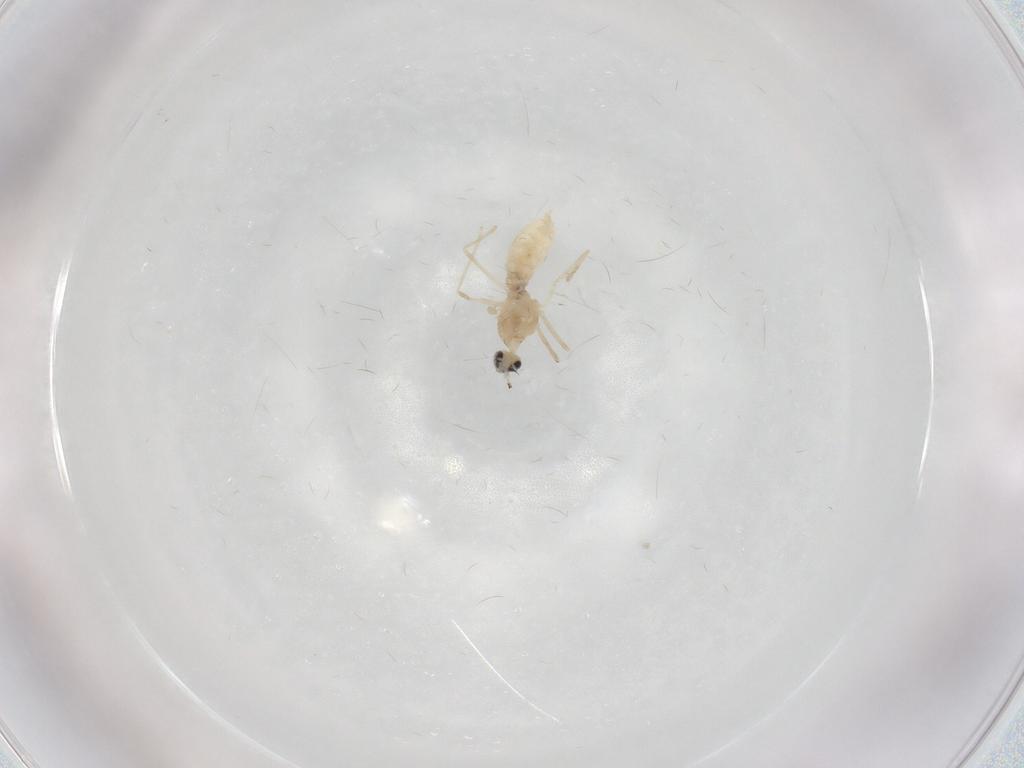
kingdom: Animalia
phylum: Arthropoda
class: Insecta
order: Diptera
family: Cecidomyiidae
